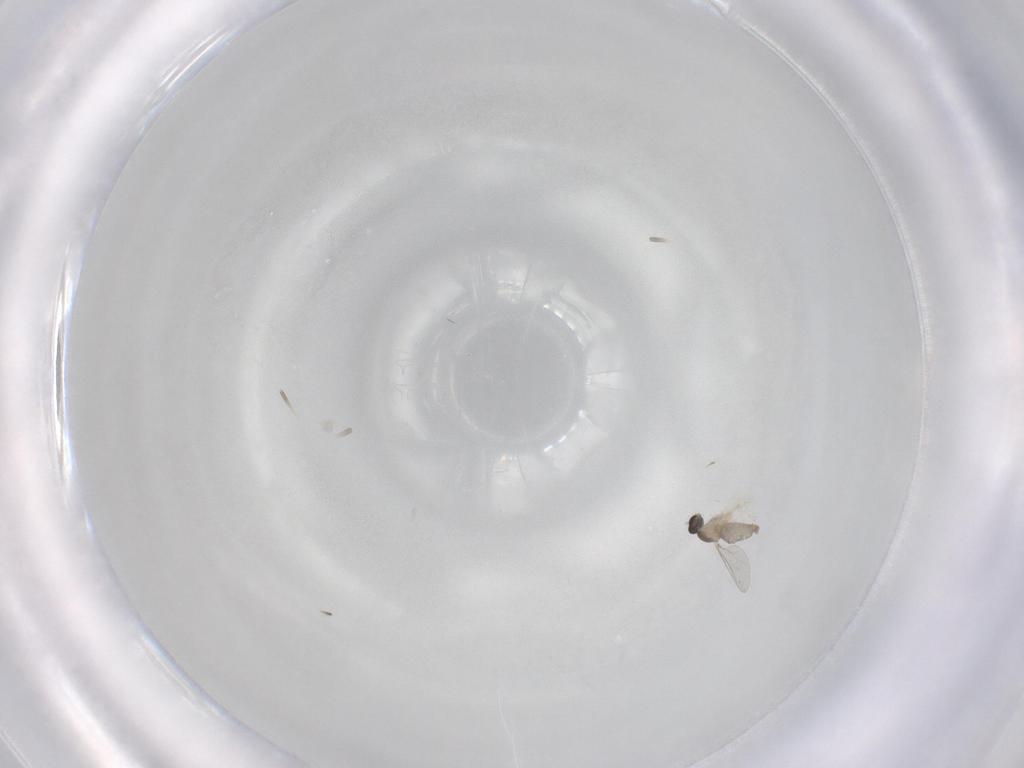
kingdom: Animalia
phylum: Arthropoda
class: Insecta
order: Diptera
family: Cecidomyiidae
